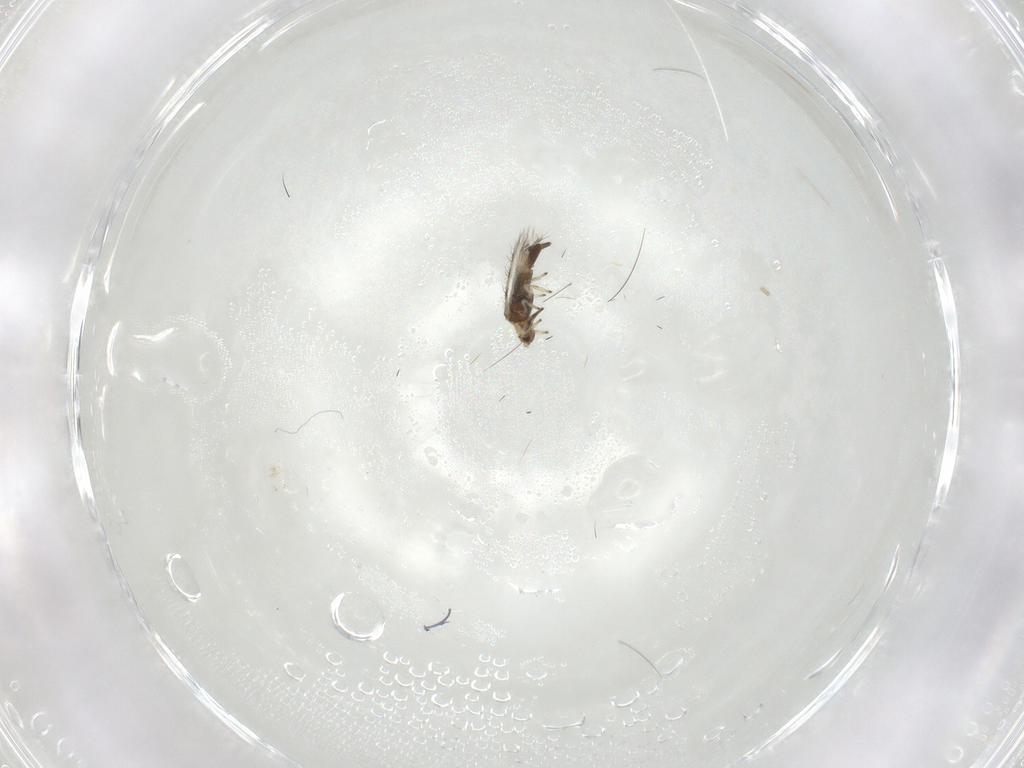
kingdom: Animalia
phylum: Arthropoda
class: Insecta
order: Thysanoptera
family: Thripidae
